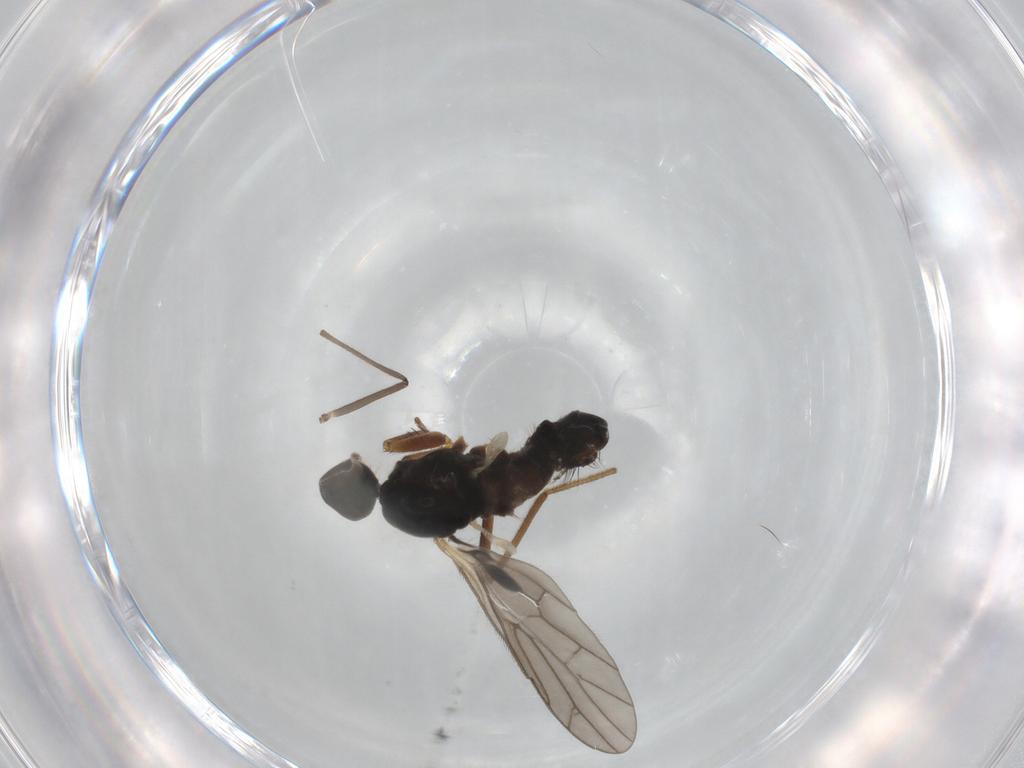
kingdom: Animalia
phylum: Arthropoda
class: Insecta
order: Diptera
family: Empididae
